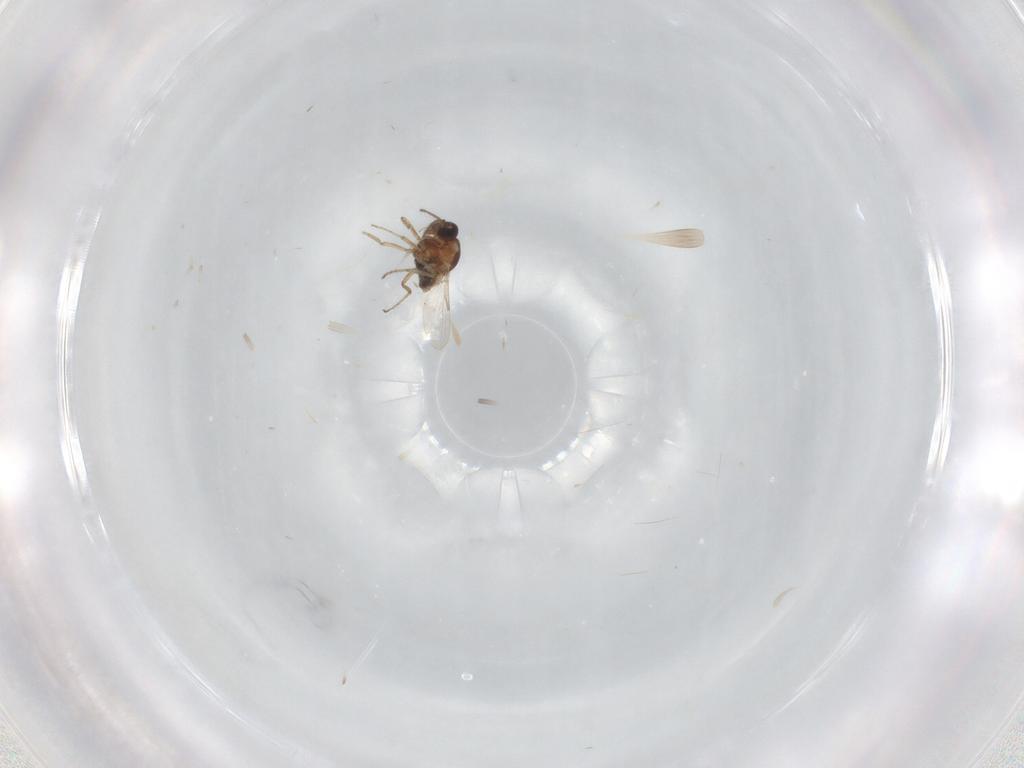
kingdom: Animalia
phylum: Arthropoda
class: Insecta
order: Diptera
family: Ceratopogonidae
